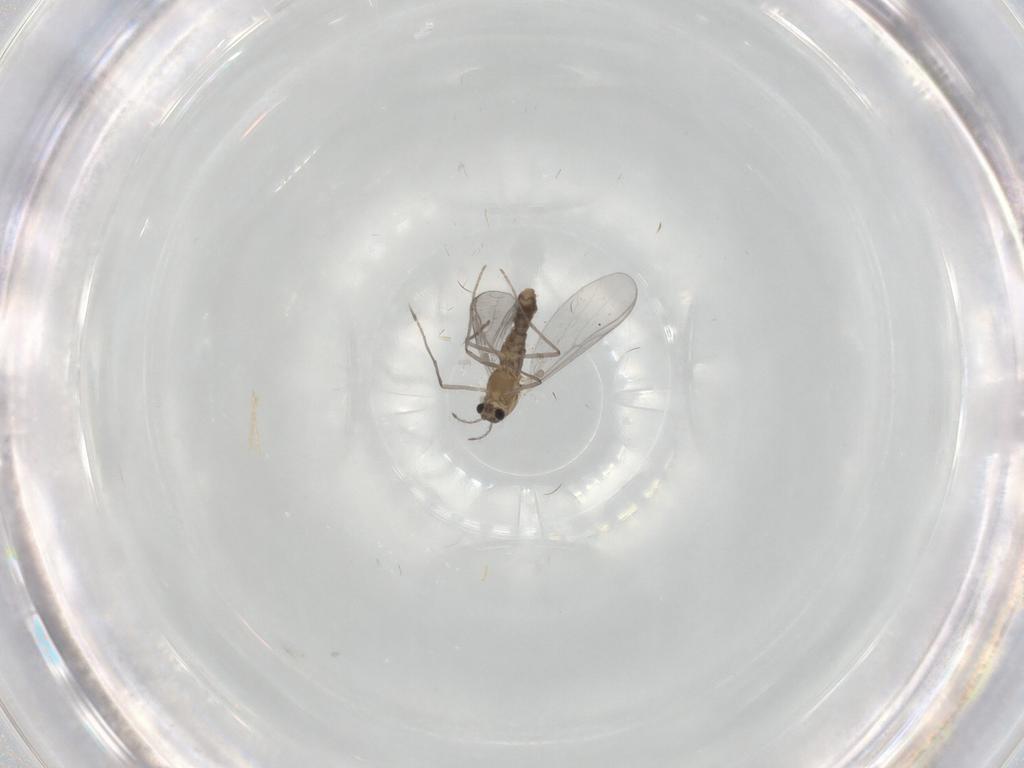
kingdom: Animalia
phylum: Arthropoda
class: Insecta
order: Diptera
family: Chironomidae
